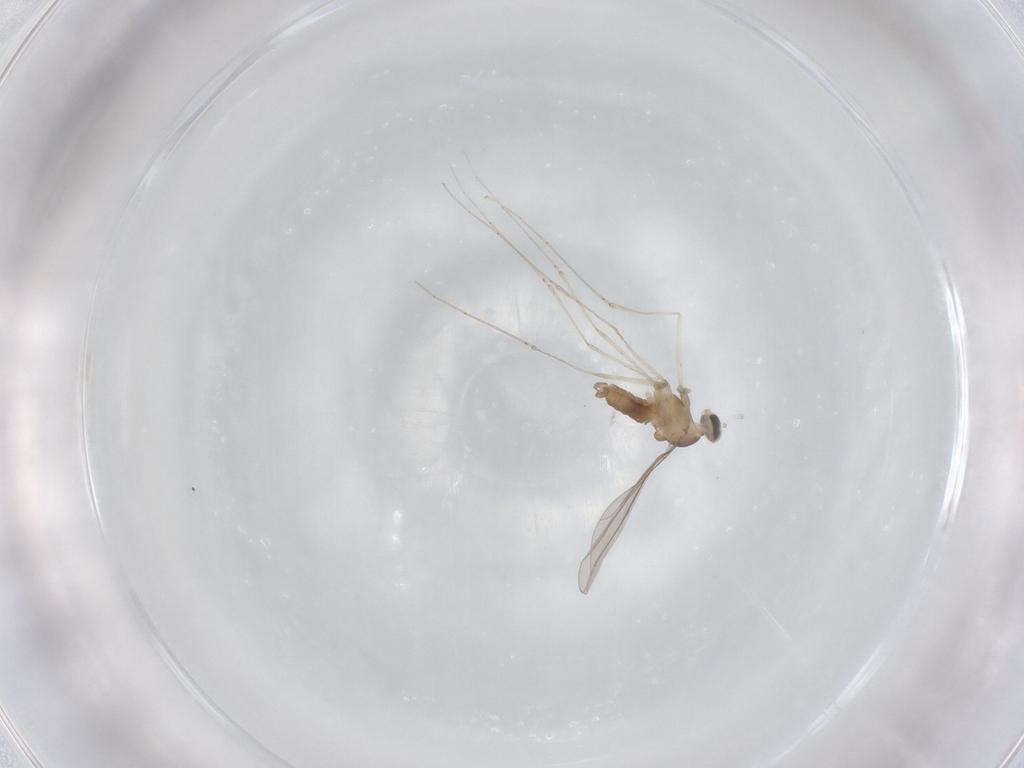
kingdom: Animalia
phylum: Arthropoda
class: Insecta
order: Diptera
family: Cecidomyiidae
